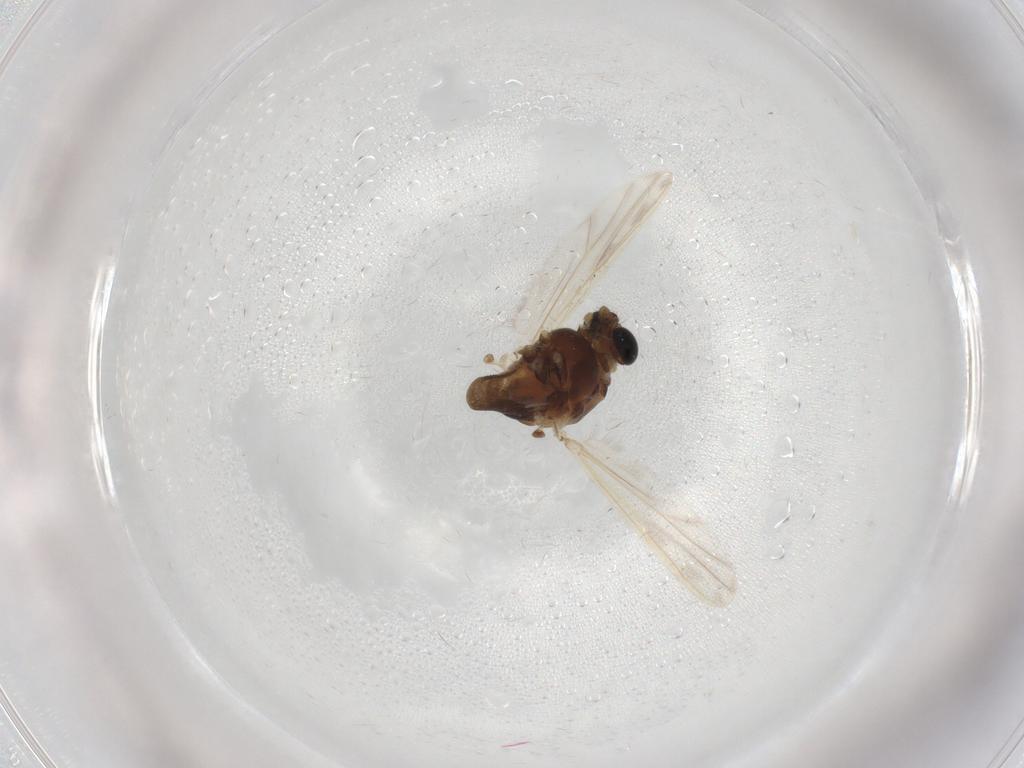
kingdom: Animalia
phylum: Arthropoda
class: Insecta
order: Diptera
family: Chironomidae
